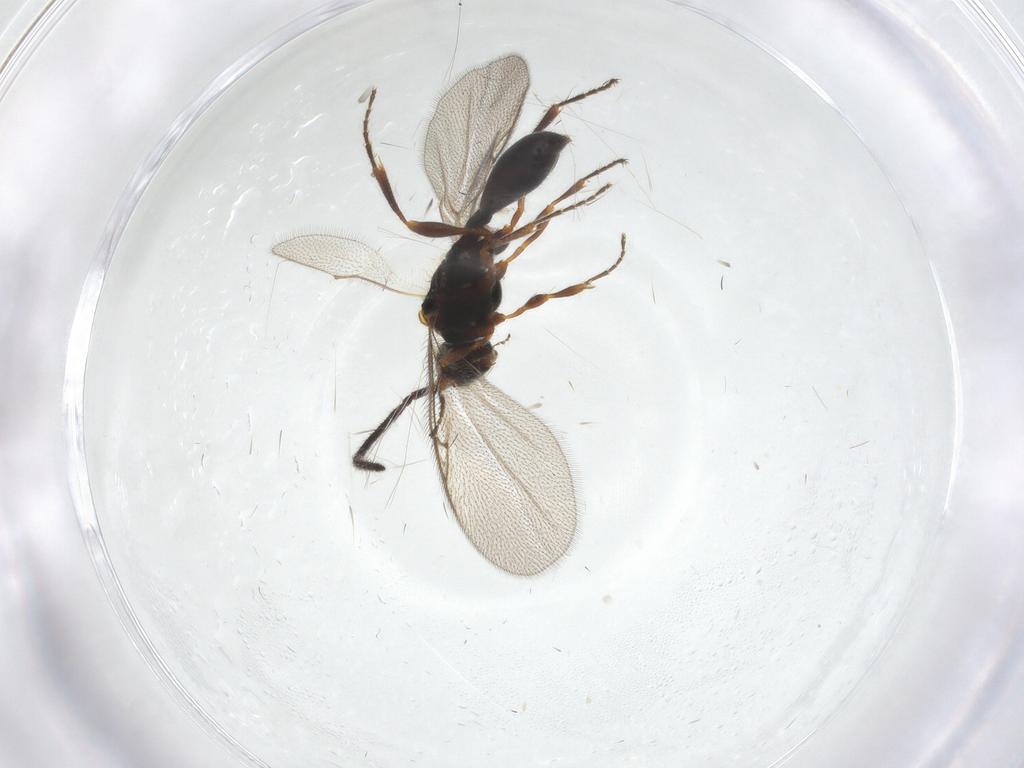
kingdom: Animalia
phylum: Arthropoda
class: Insecta
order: Hymenoptera
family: Diapriidae
